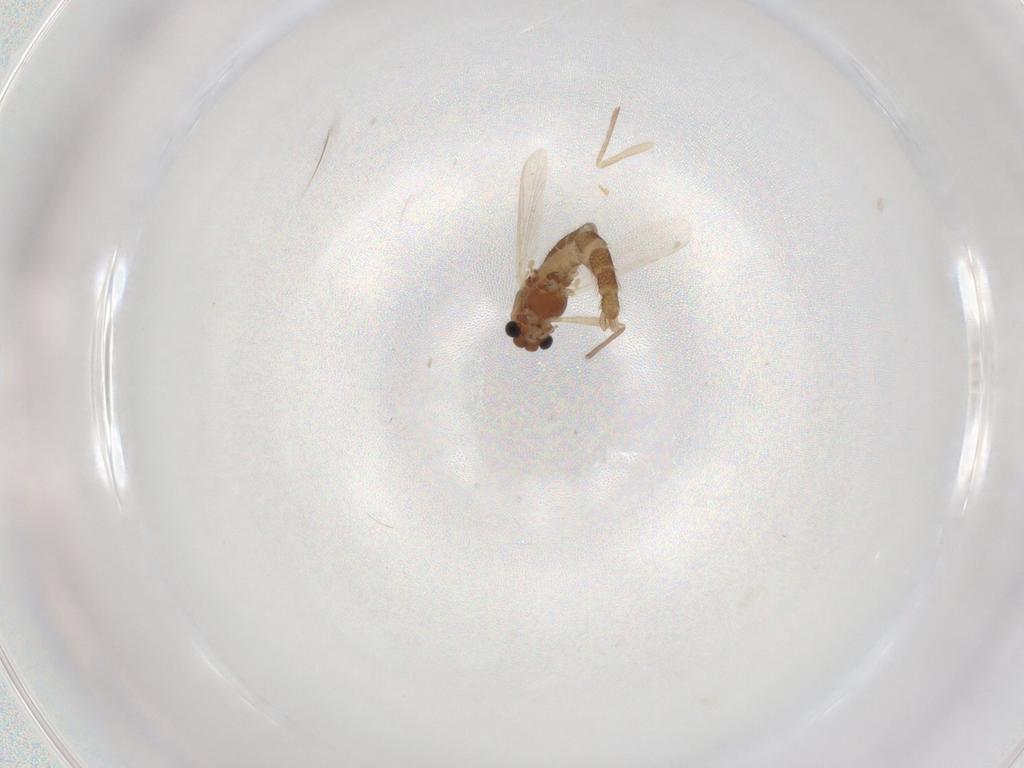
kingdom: Animalia
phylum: Arthropoda
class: Insecta
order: Diptera
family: Chironomidae
